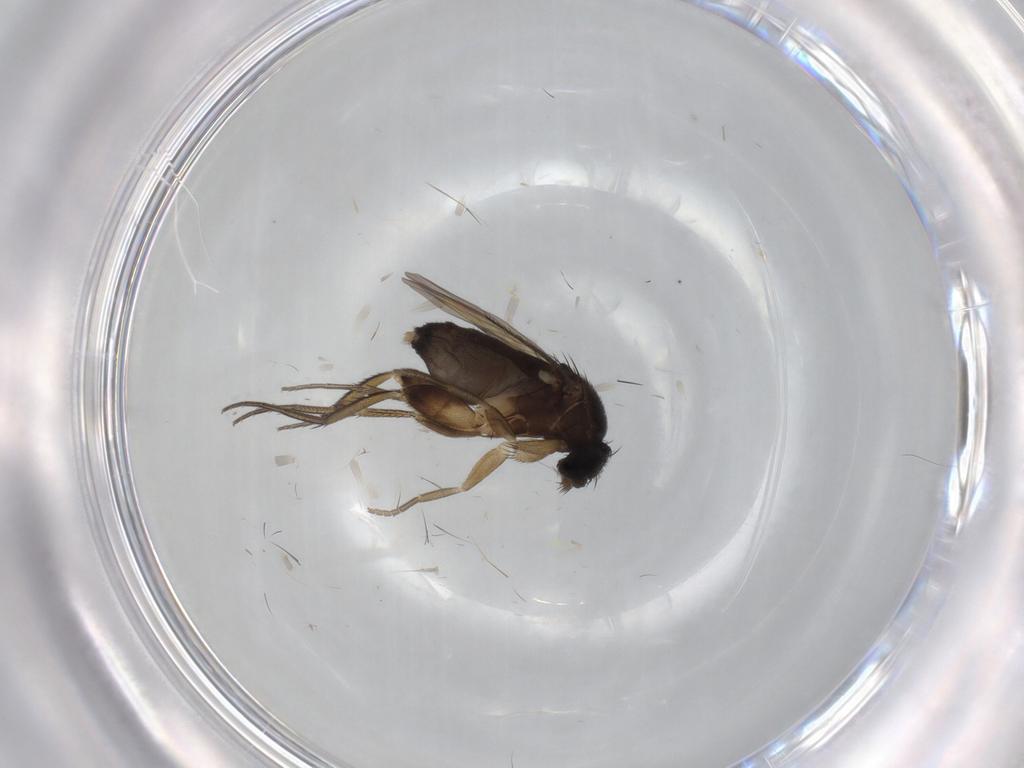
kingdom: Animalia
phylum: Arthropoda
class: Insecta
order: Diptera
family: Phoridae
